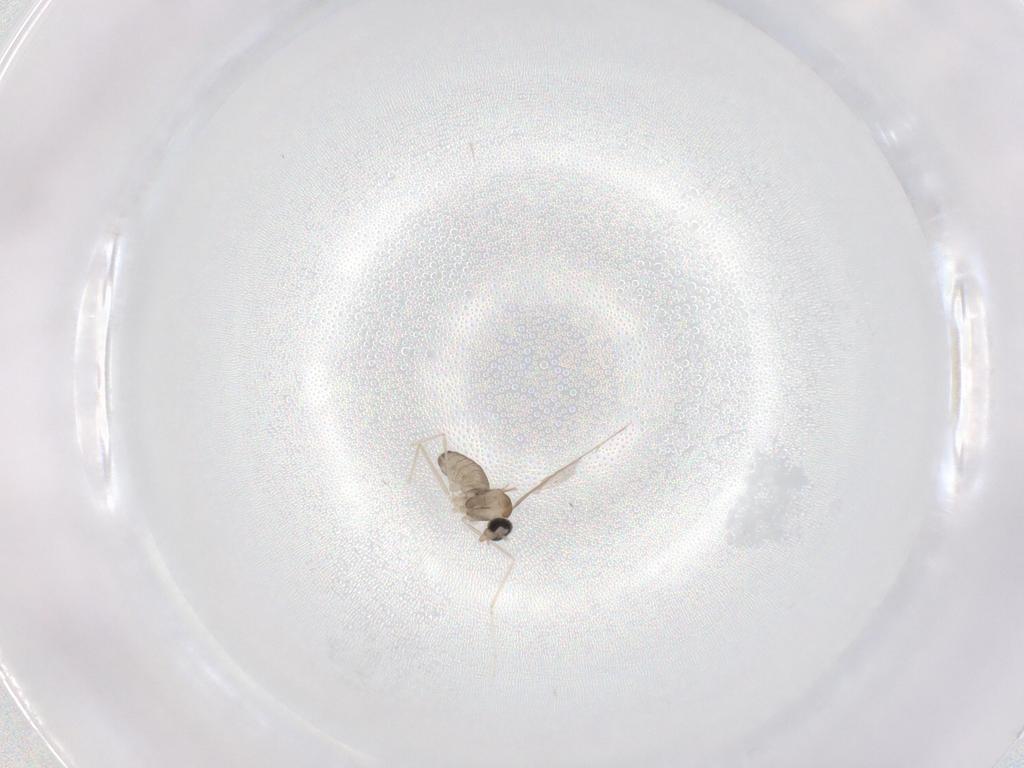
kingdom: Animalia
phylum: Arthropoda
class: Insecta
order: Diptera
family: Cecidomyiidae
